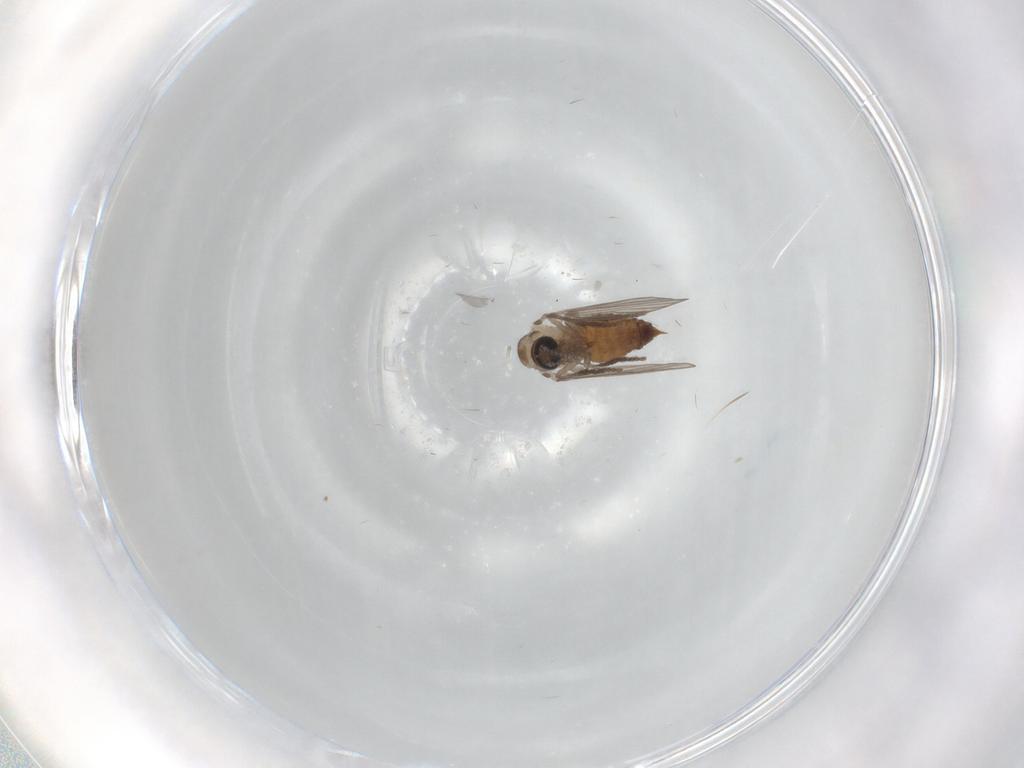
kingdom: Animalia
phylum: Arthropoda
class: Insecta
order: Diptera
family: Psychodidae
